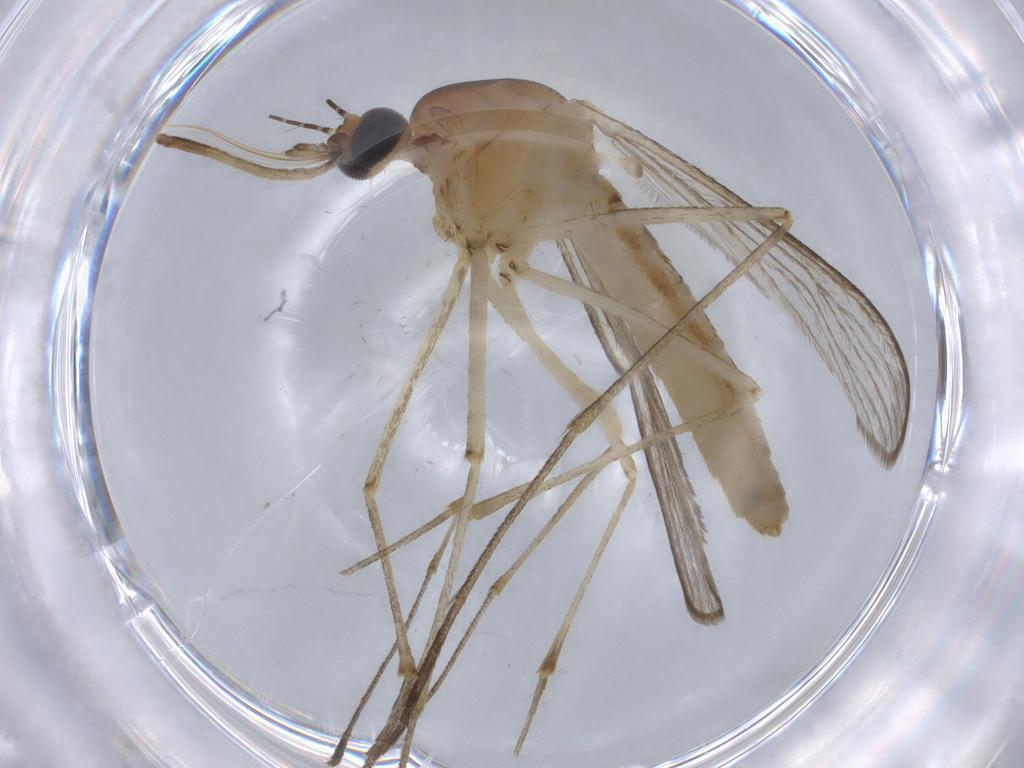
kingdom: Animalia
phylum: Arthropoda
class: Insecta
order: Diptera
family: Culicidae
